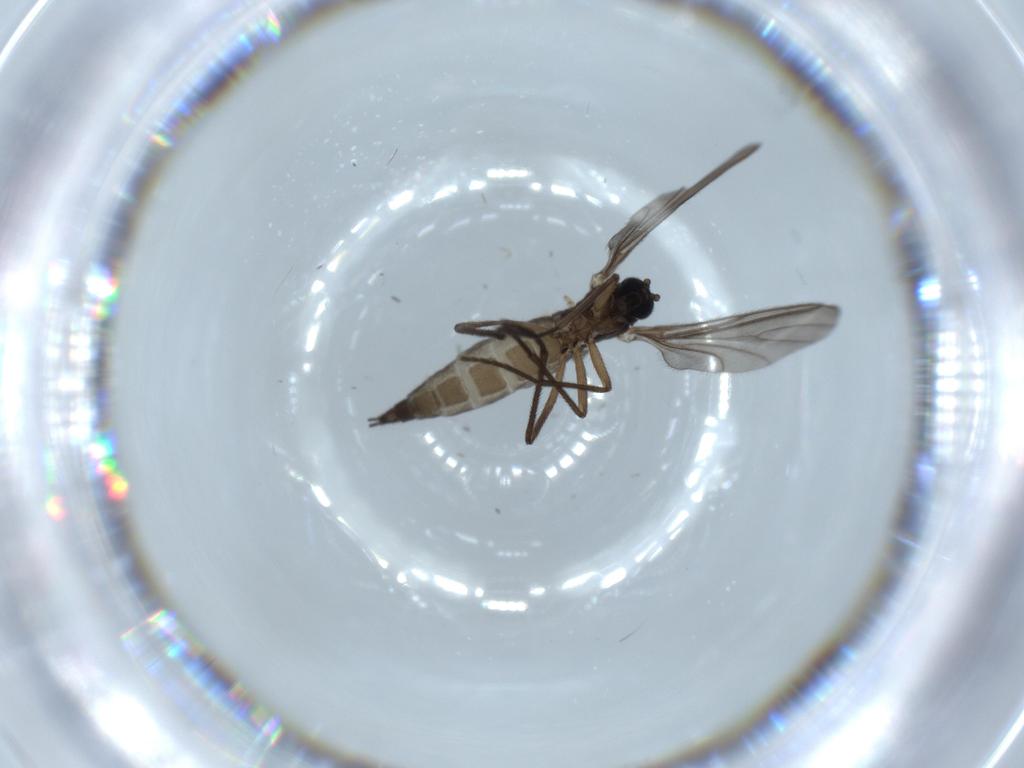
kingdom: Animalia
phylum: Arthropoda
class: Insecta
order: Diptera
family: Sciaridae
